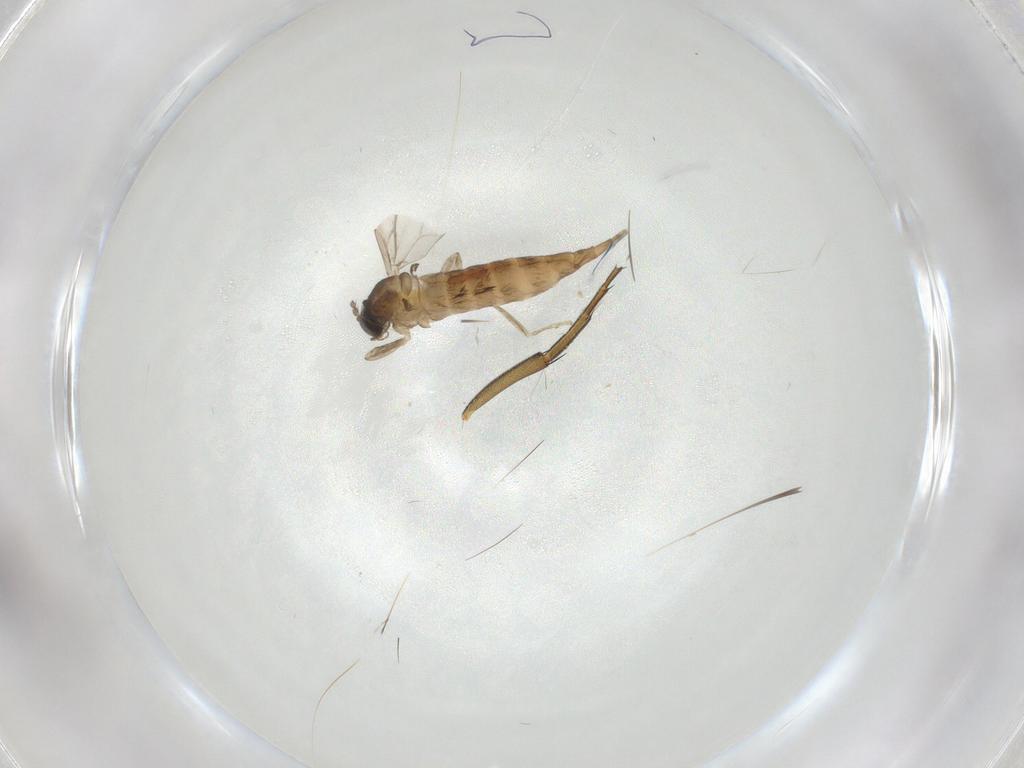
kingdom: Animalia
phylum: Arthropoda
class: Insecta
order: Diptera
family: Cecidomyiidae
